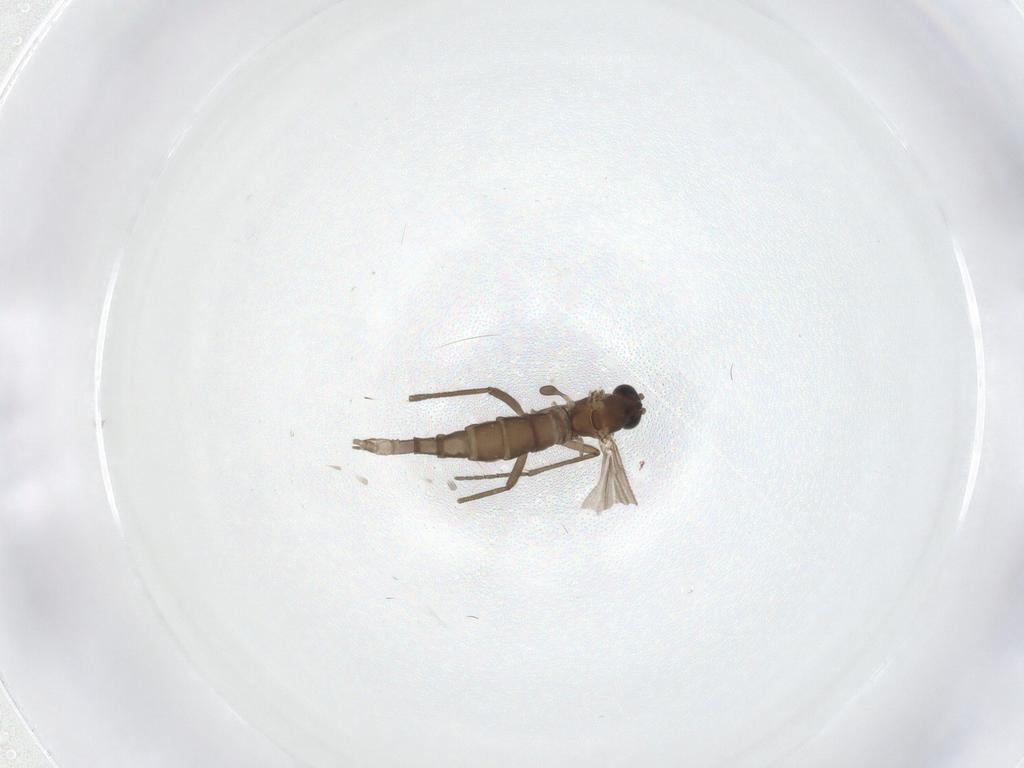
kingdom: Animalia
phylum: Arthropoda
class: Insecta
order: Diptera
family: Sciaridae
